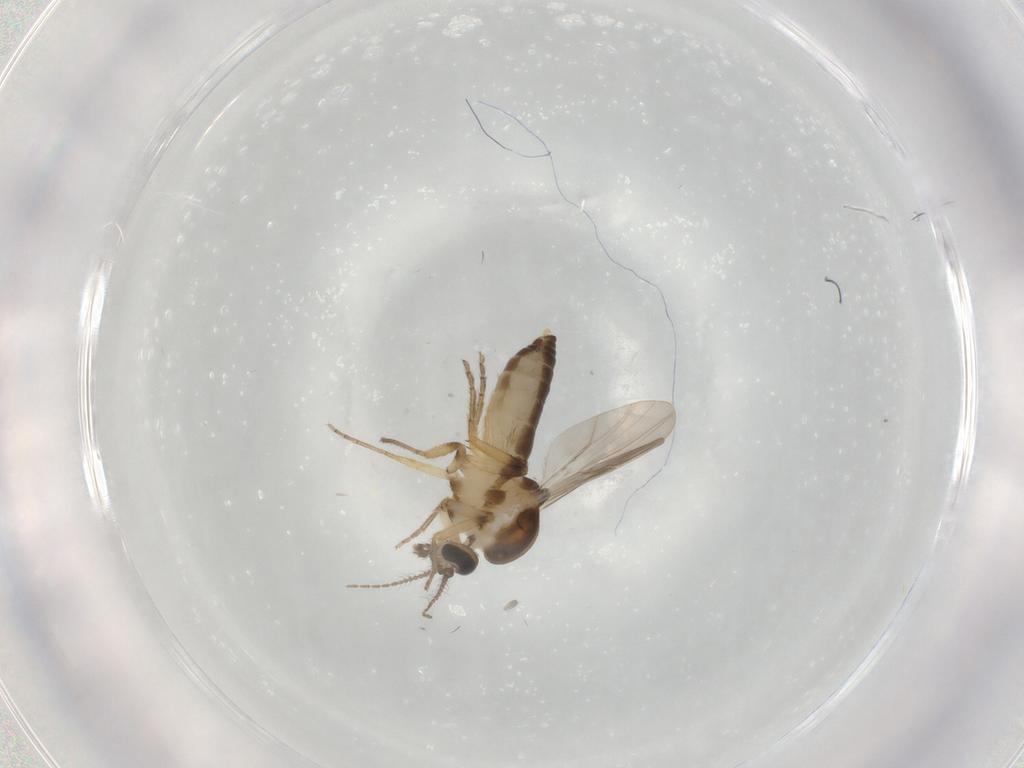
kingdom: Animalia
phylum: Arthropoda
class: Insecta
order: Diptera
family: Ceratopogonidae
